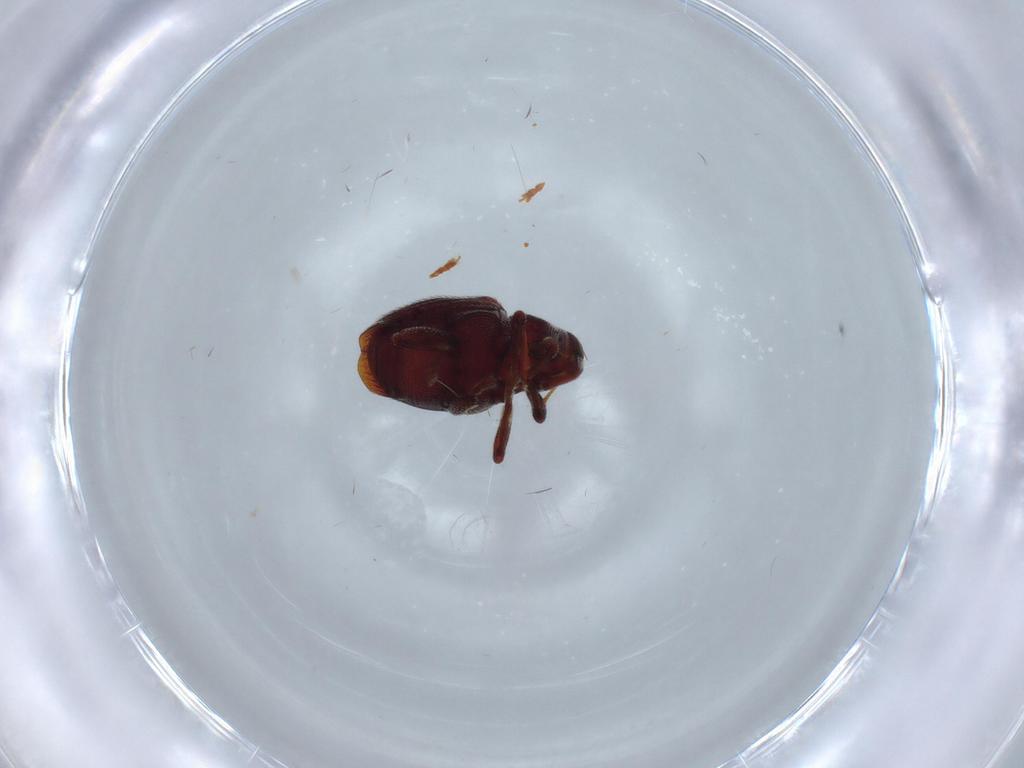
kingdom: Animalia
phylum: Arthropoda
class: Insecta
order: Coleoptera
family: Curculionidae
